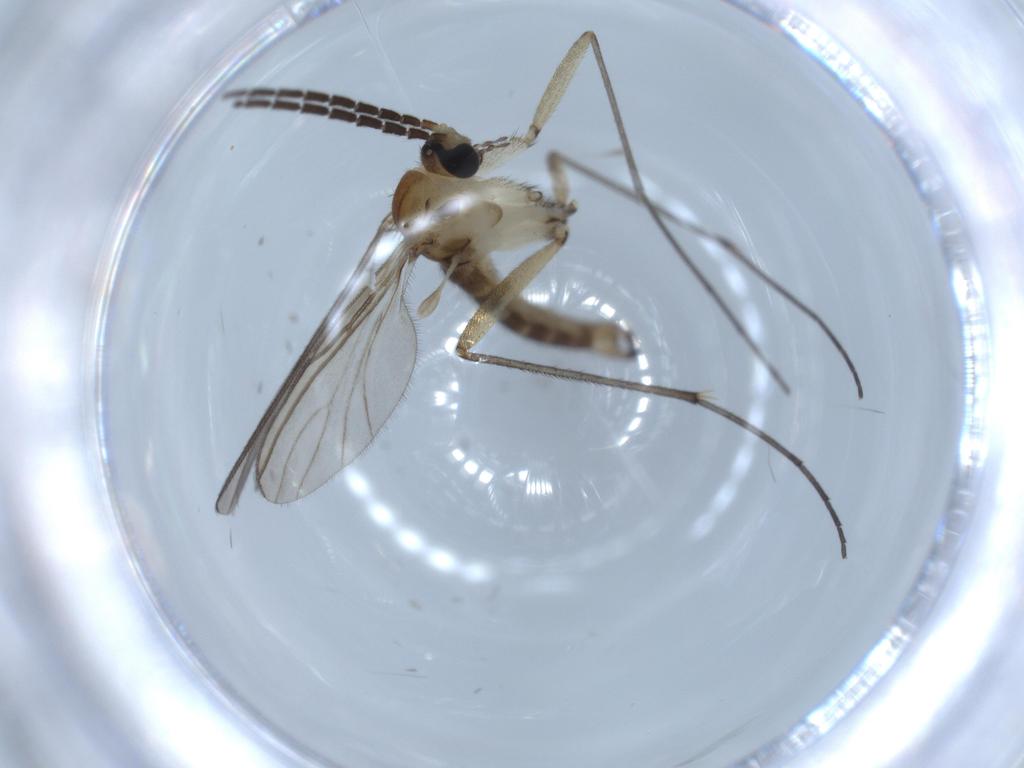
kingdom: Animalia
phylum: Arthropoda
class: Insecta
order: Diptera
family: Sciaridae
